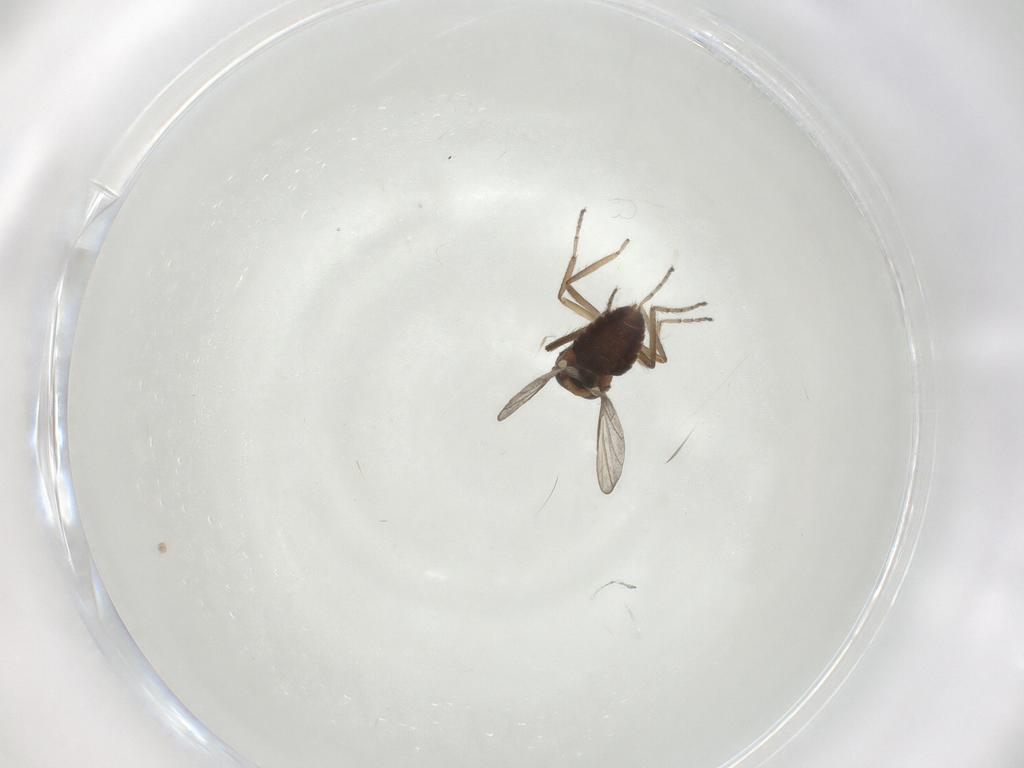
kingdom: Animalia
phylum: Arthropoda
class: Insecta
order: Diptera
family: Ceratopogonidae
